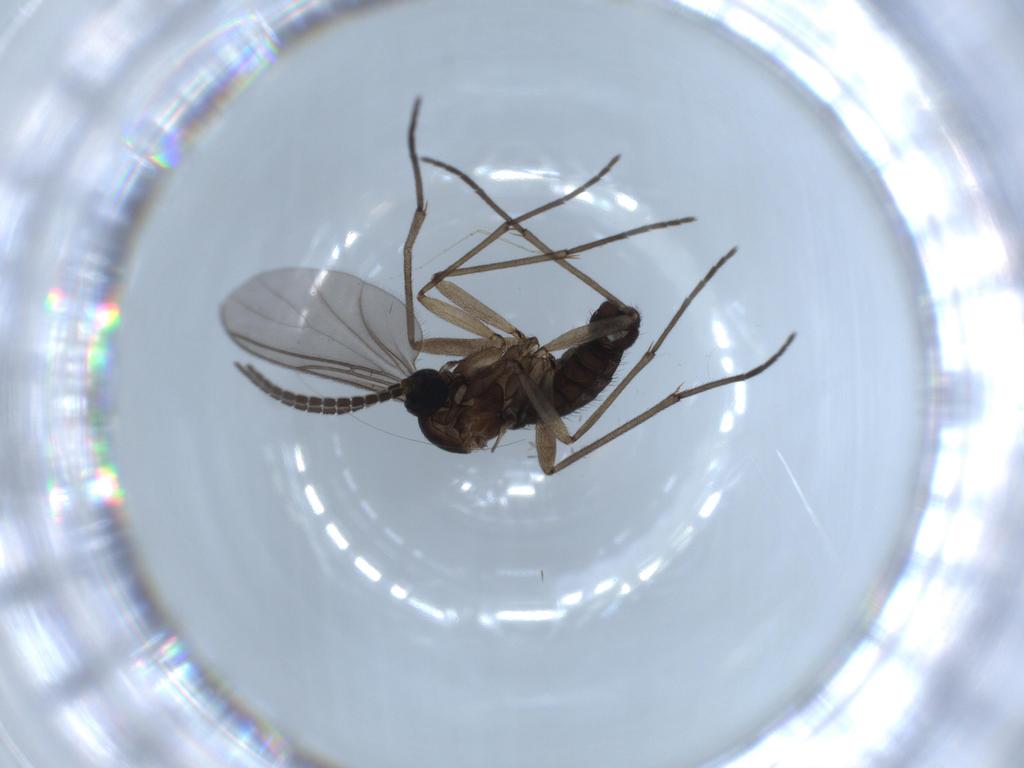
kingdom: Animalia
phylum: Arthropoda
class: Insecta
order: Diptera
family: Sciaridae
